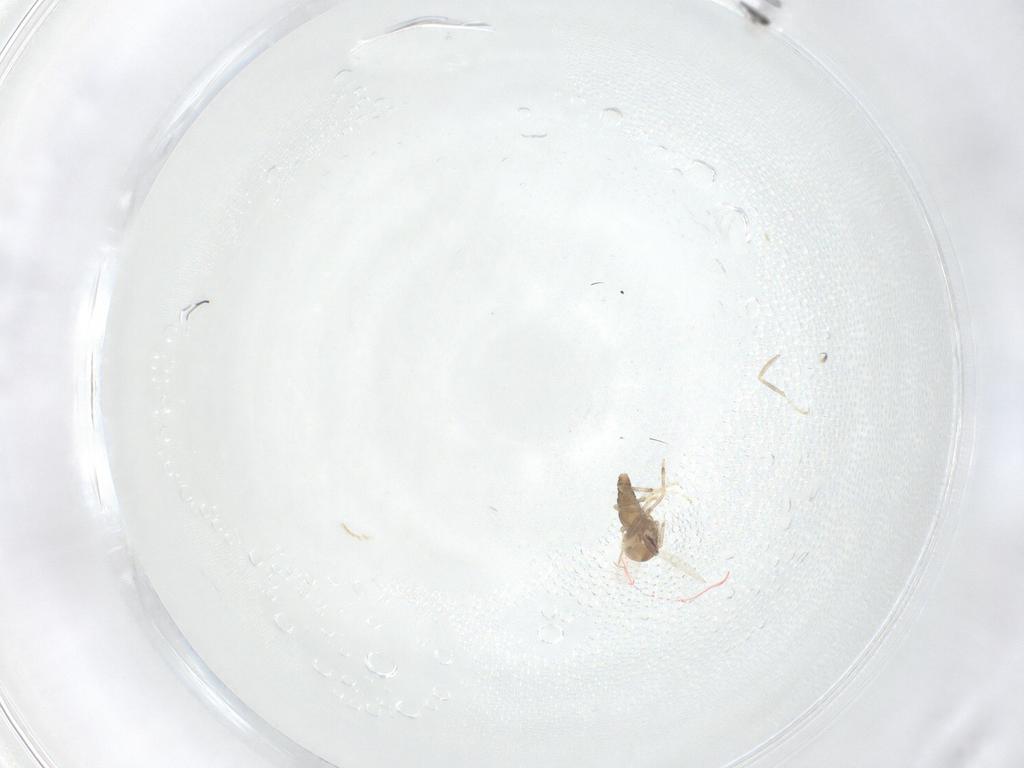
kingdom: Animalia
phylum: Arthropoda
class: Insecta
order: Diptera
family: Ceratopogonidae
